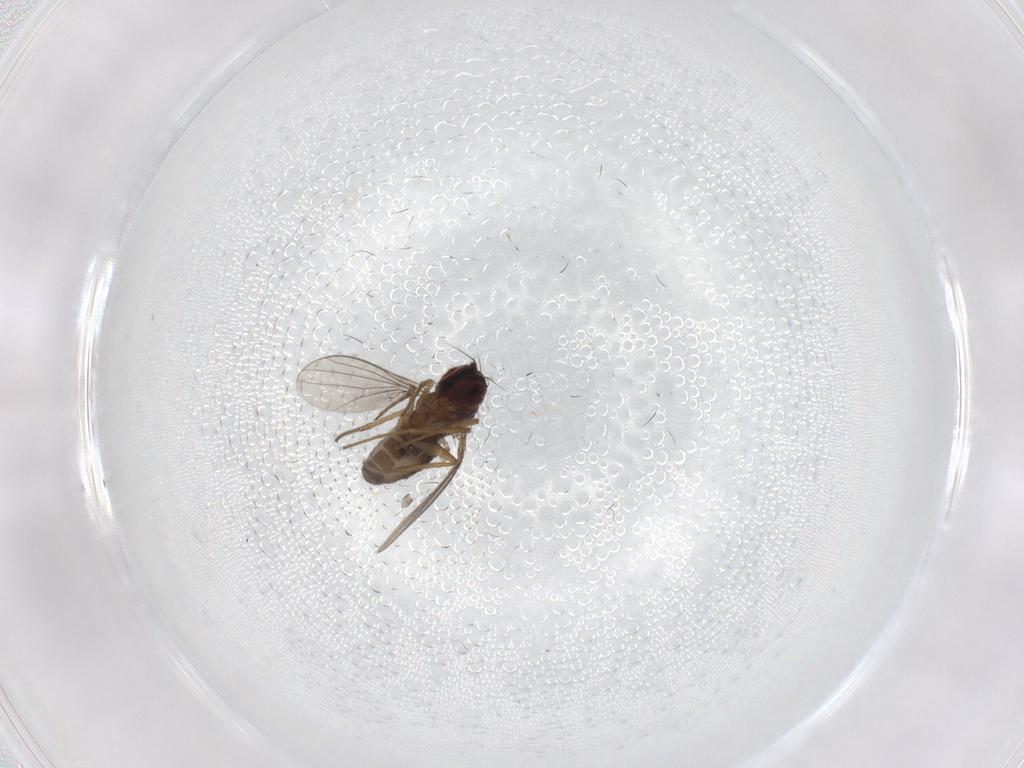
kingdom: Animalia
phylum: Arthropoda
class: Insecta
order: Diptera
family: Dolichopodidae
